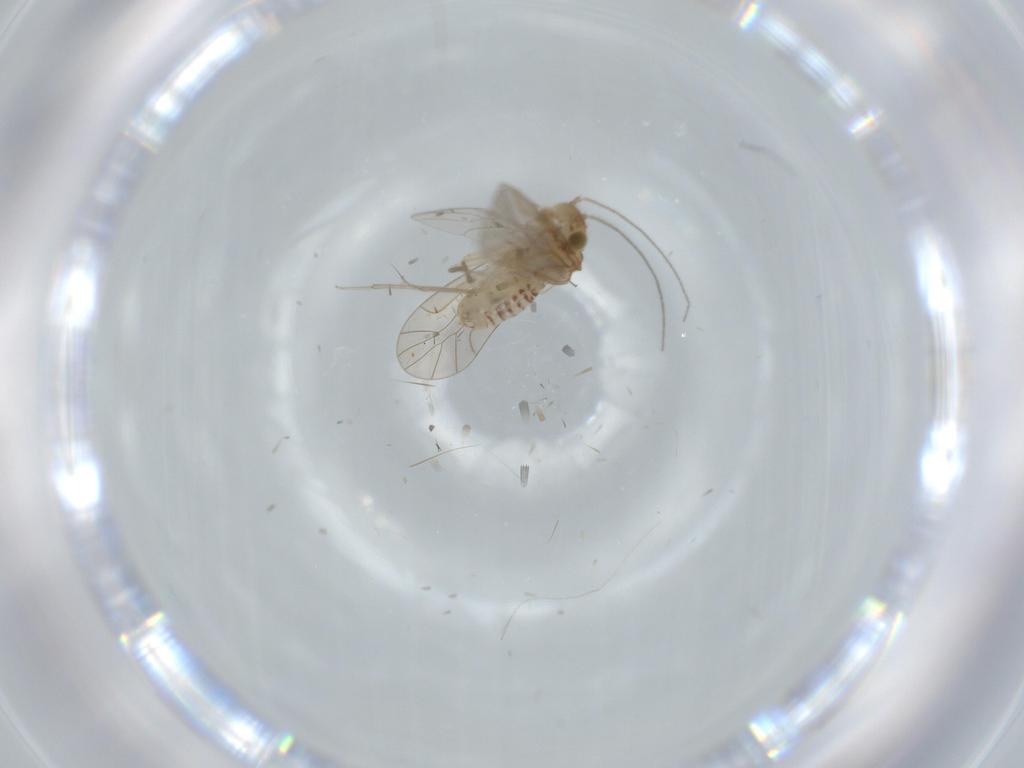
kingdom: Animalia
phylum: Arthropoda
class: Insecta
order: Psocodea
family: Lachesillidae
